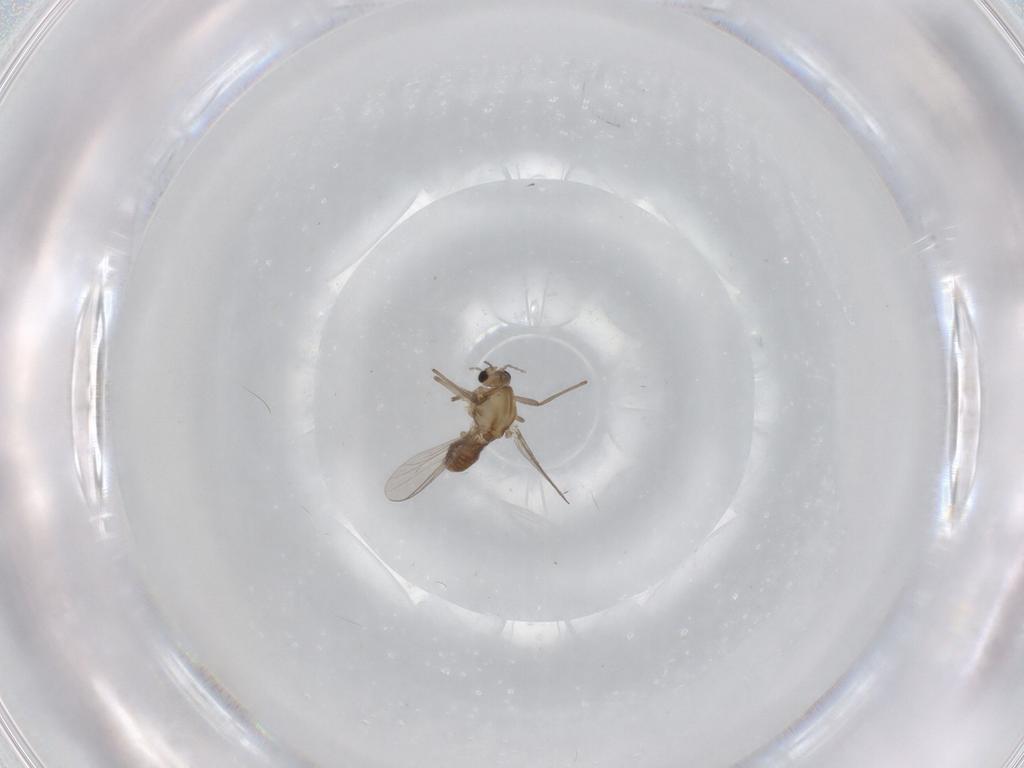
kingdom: Animalia
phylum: Arthropoda
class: Insecta
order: Diptera
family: Chironomidae
